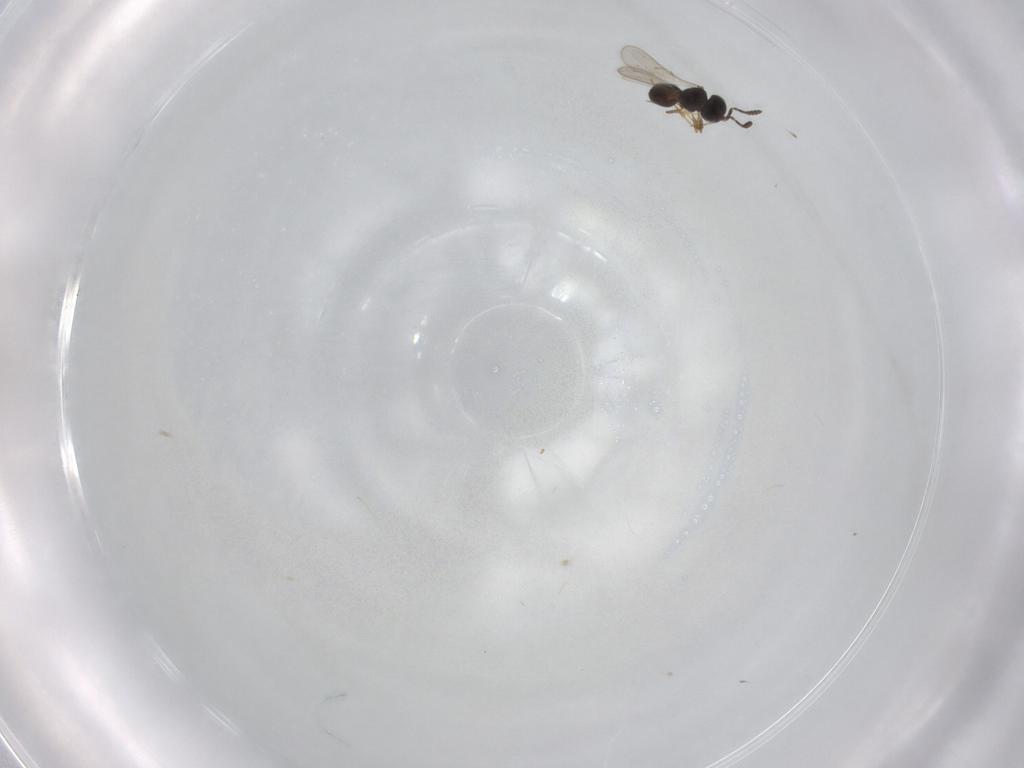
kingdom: Animalia
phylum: Arthropoda
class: Insecta
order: Hymenoptera
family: Scelionidae
